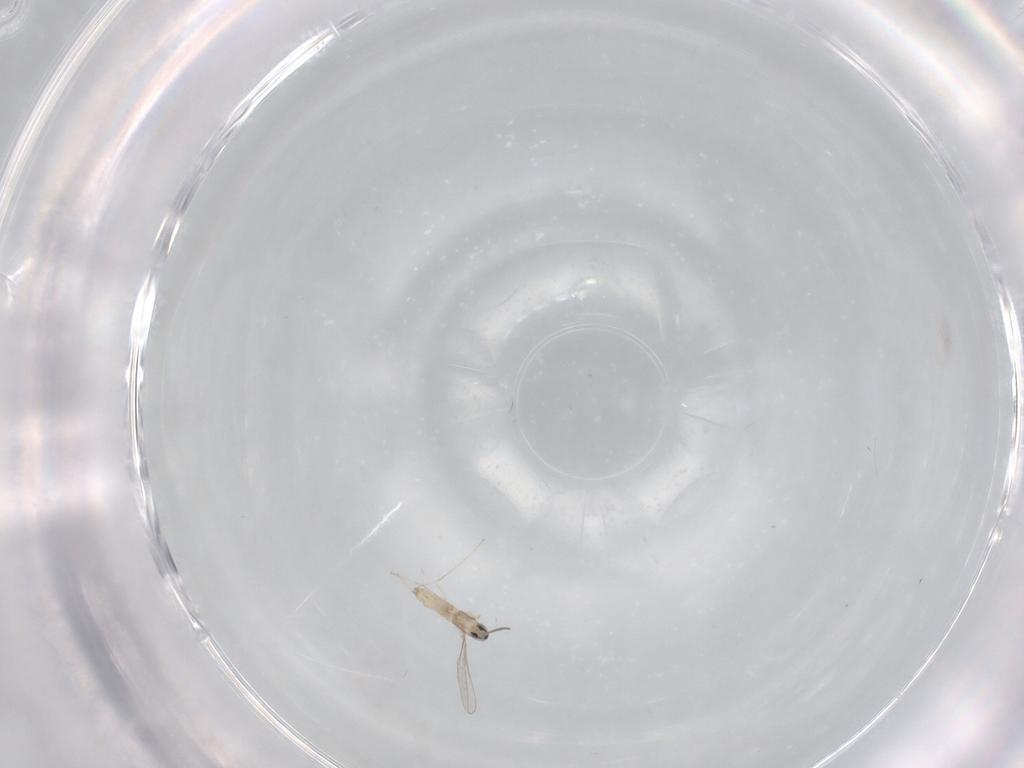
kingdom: Animalia
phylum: Arthropoda
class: Insecta
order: Diptera
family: Cecidomyiidae
